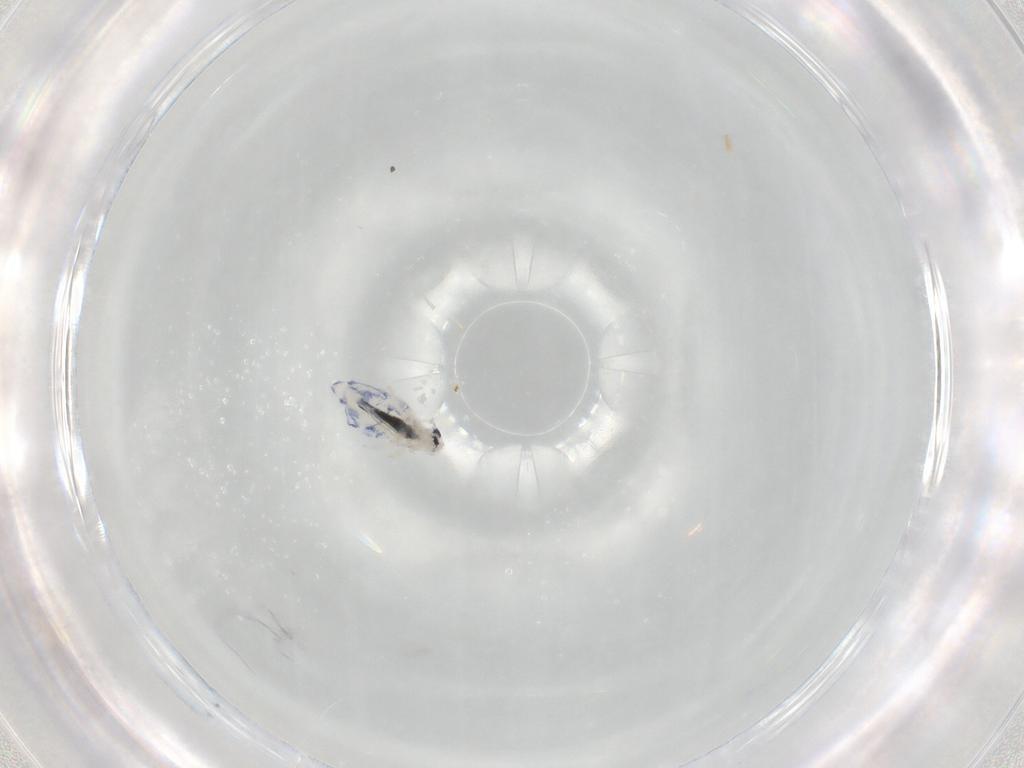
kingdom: Animalia
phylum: Arthropoda
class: Collembola
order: Entomobryomorpha
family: Entomobryidae
